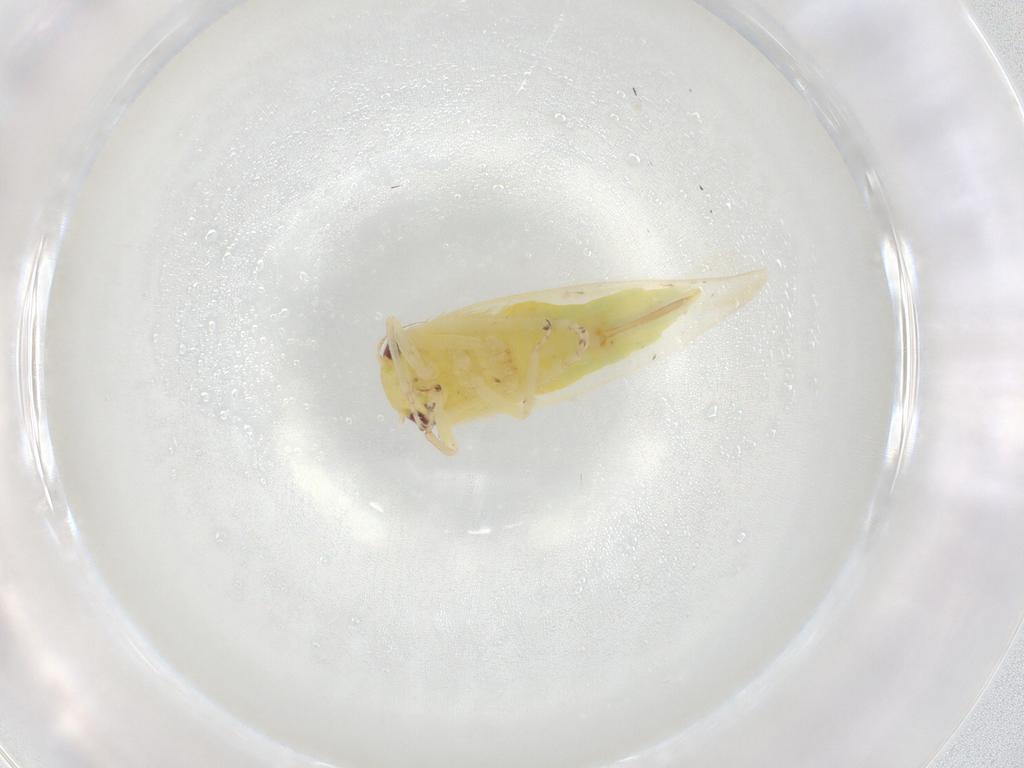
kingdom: Animalia
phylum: Arthropoda
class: Insecta
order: Hemiptera
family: Cicadellidae
